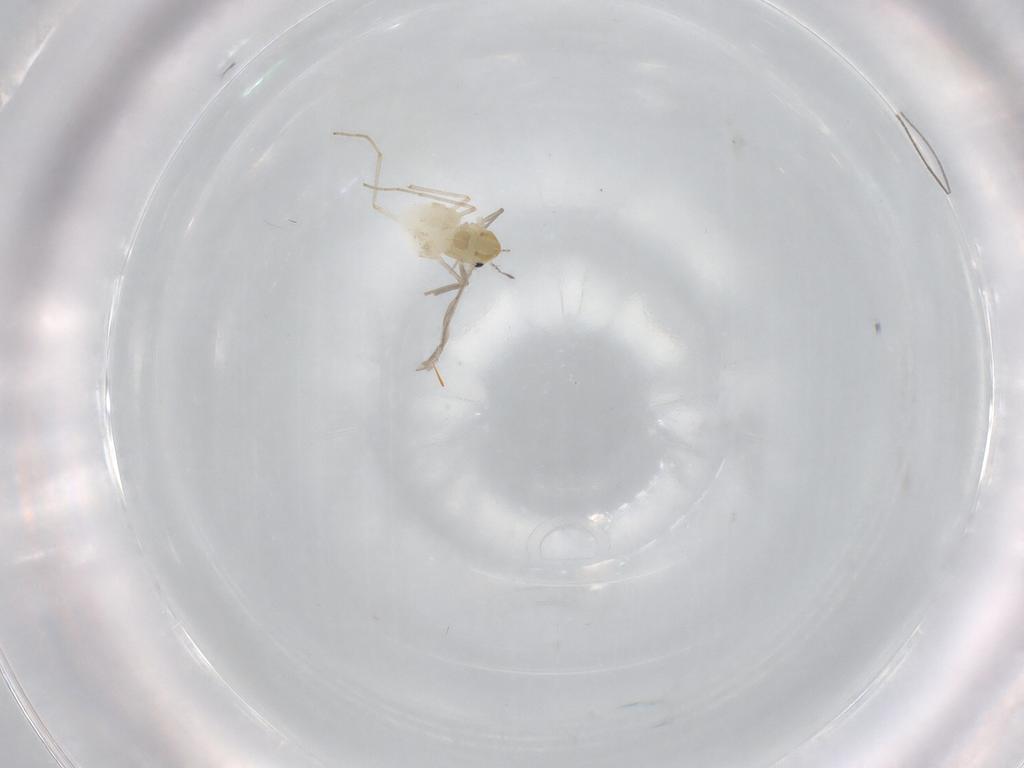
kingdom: Animalia
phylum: Arthropoda
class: Insecta
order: Diptera
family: Chironomidae
